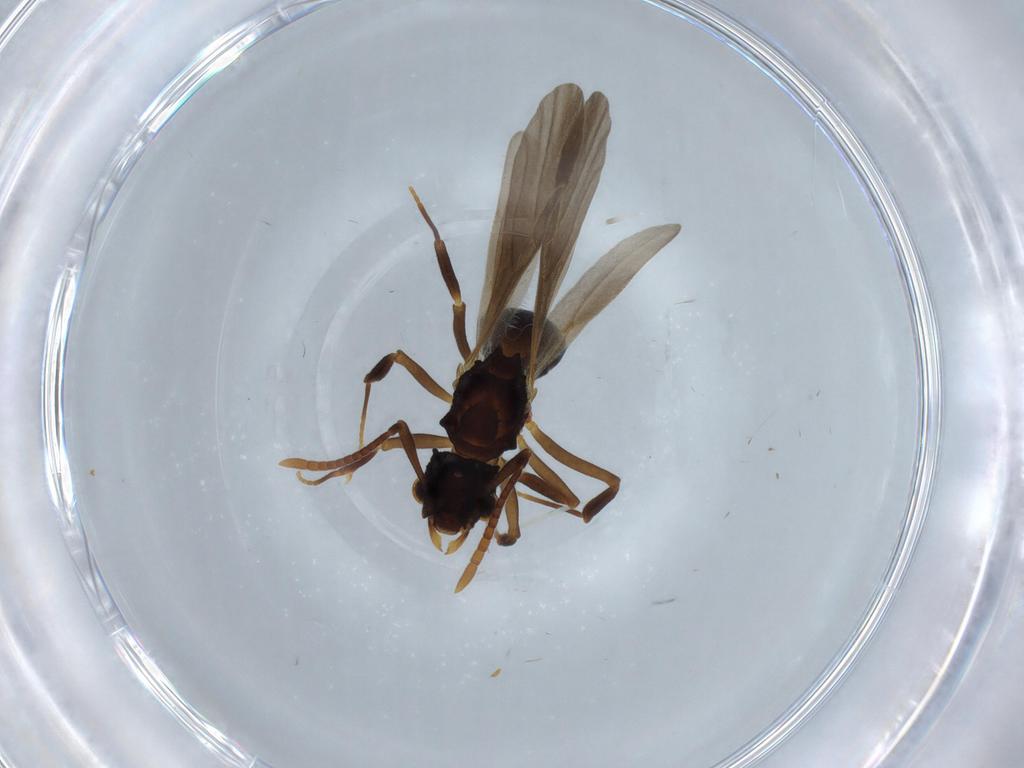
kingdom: Animalia
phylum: Arthropoda
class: Insecta
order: Hymenoptera
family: Formicidae
